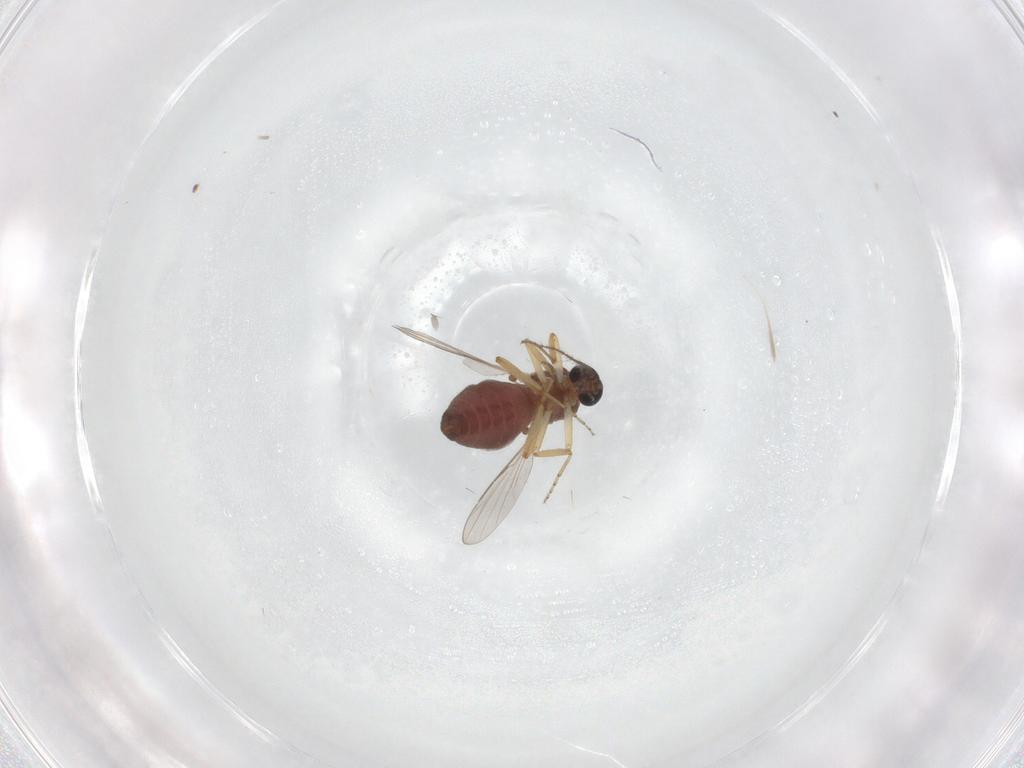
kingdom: Animalia
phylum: Arthropoda
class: Insecta
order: Diptera
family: Ceratopogonidae
